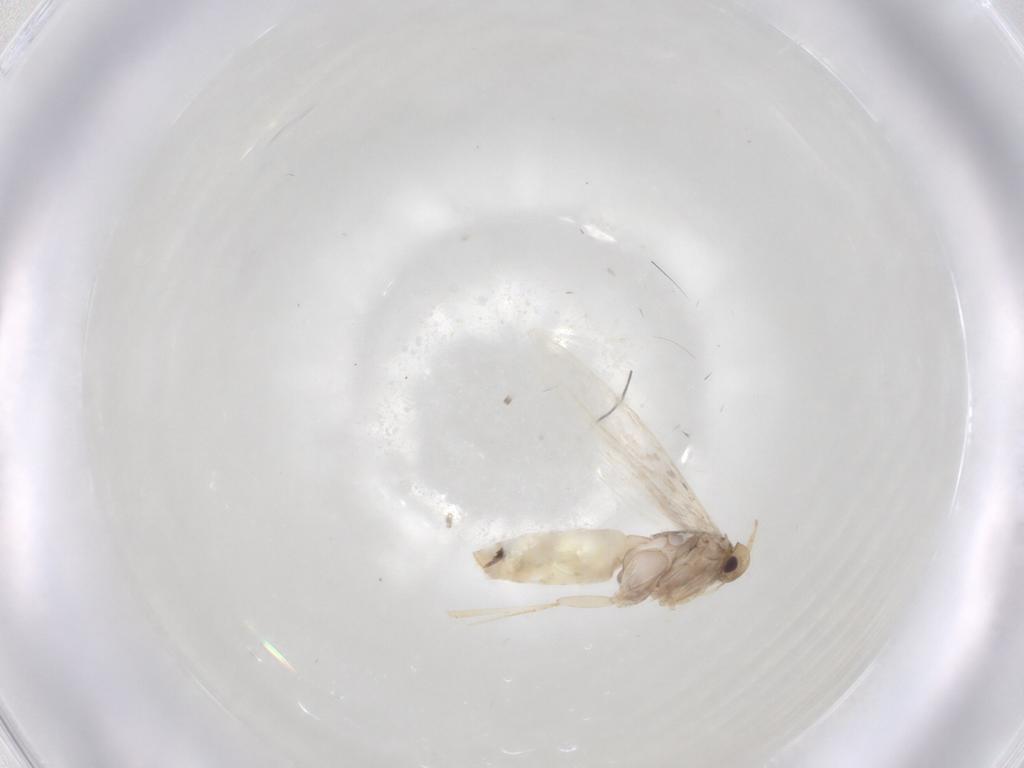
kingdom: Animalia
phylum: Arthropoda
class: Insecta
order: Lepidoptera
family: Gracillariidae
